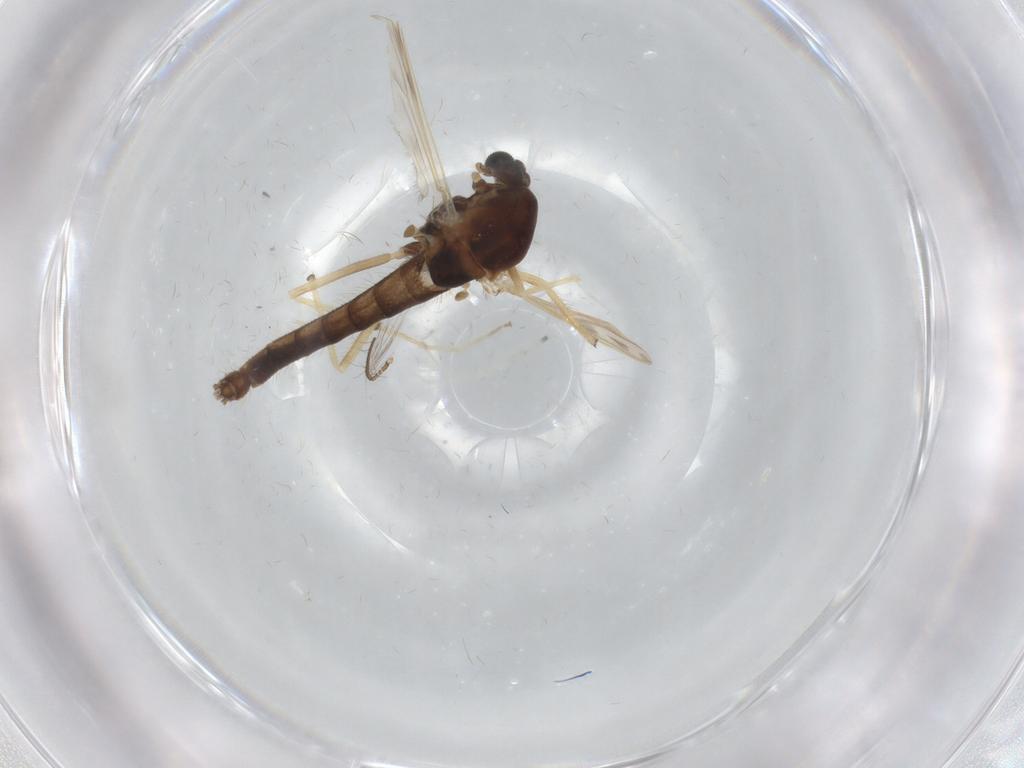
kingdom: Animalia
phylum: Arthropoda
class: Insecta
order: Diptera
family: Chironomidae
